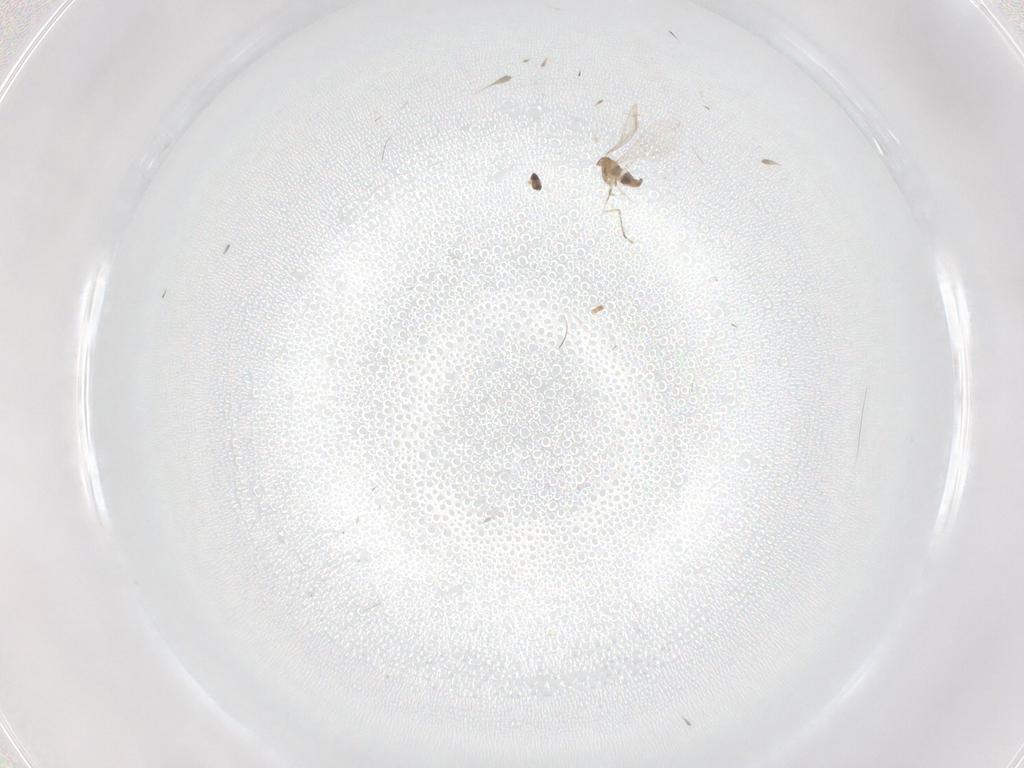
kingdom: Animalia
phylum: Arthropoda
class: Insecta
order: Diptera
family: Cecidomyiidae
